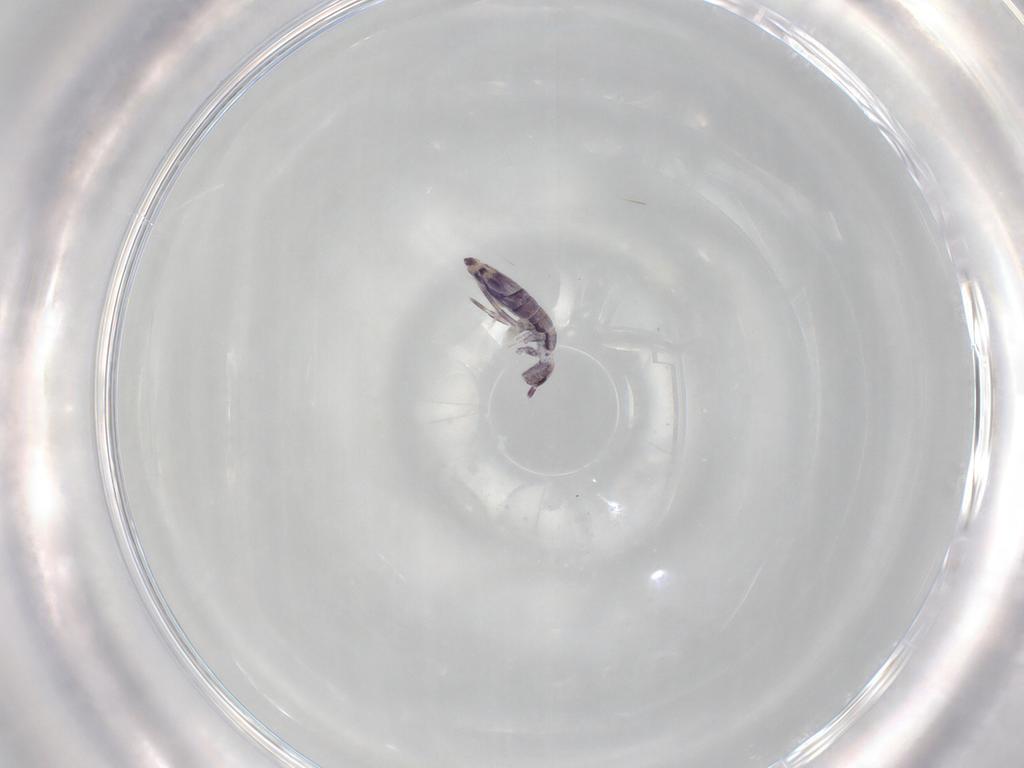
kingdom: Animalia
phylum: Arthropoda
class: Collembola
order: Entomobryomorpha
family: Entomobryidae
